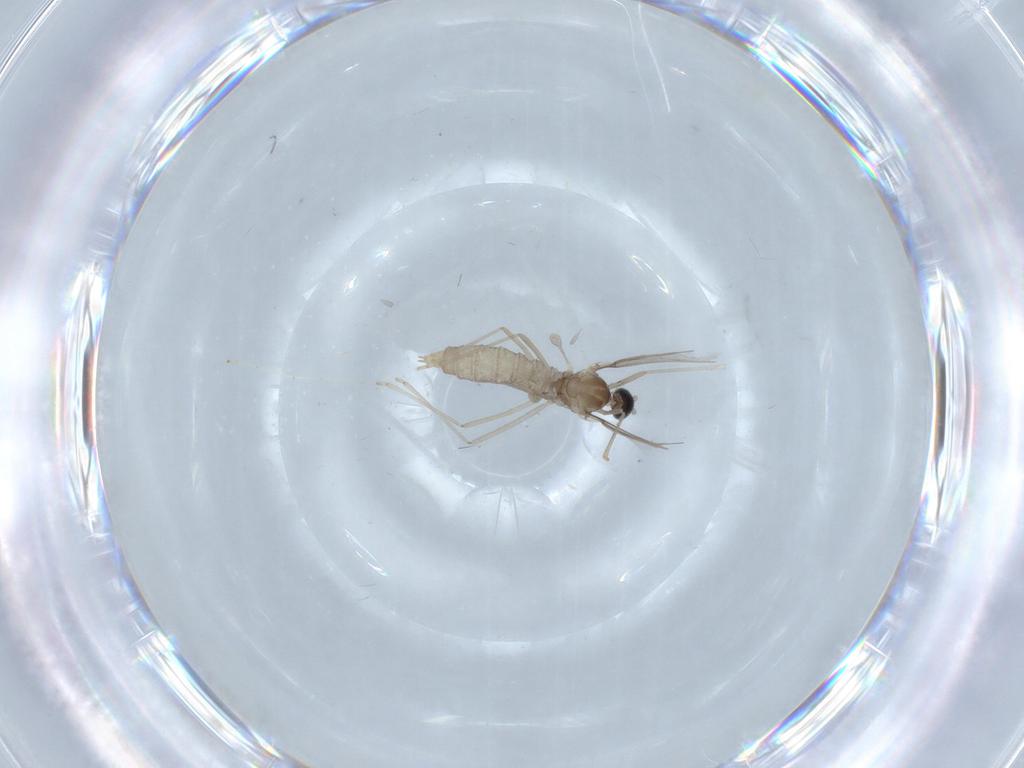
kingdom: Animalia
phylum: Arthropoda
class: Insecta
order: Diptera
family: Cecidomyiidae
